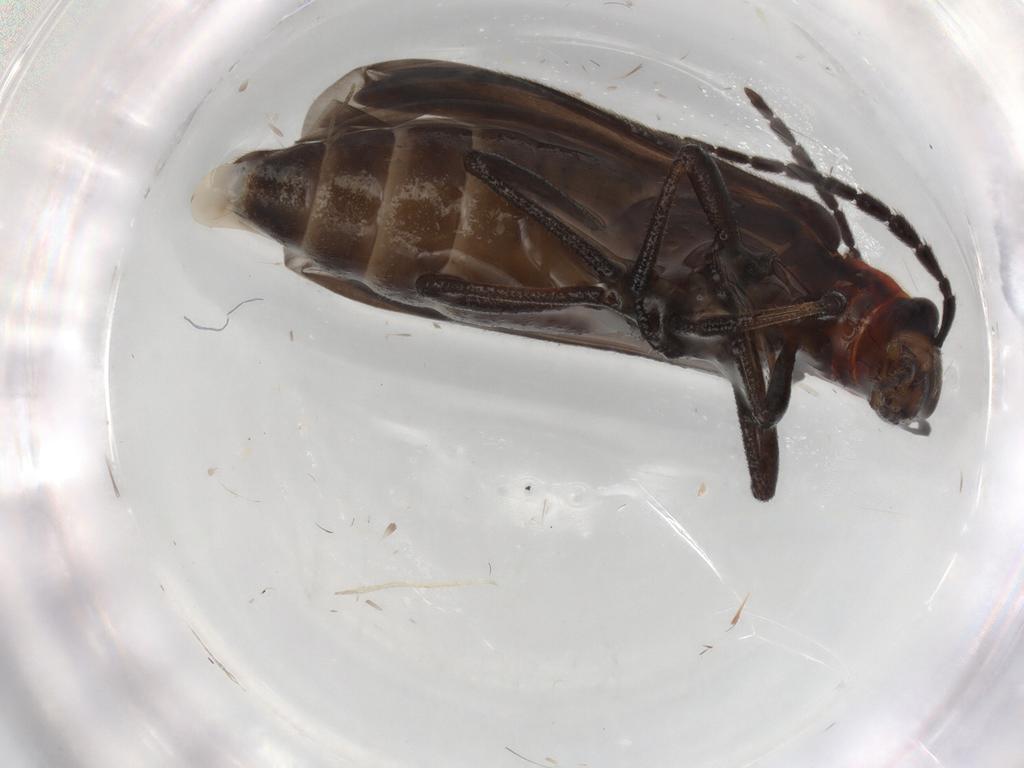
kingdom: Animalia
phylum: Arthropoda
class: Insecta
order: Coleoptera
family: Oedemeridae
